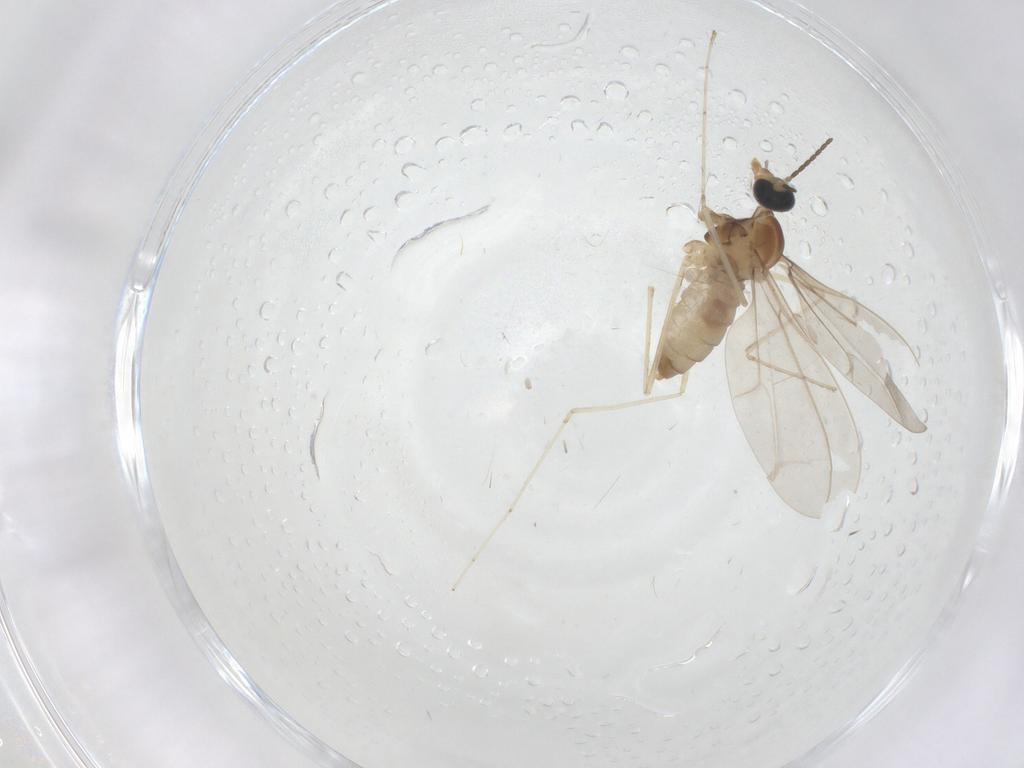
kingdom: Animalia
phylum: Arthropoda
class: Insecta
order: Diptera
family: Cecidomyiidae
